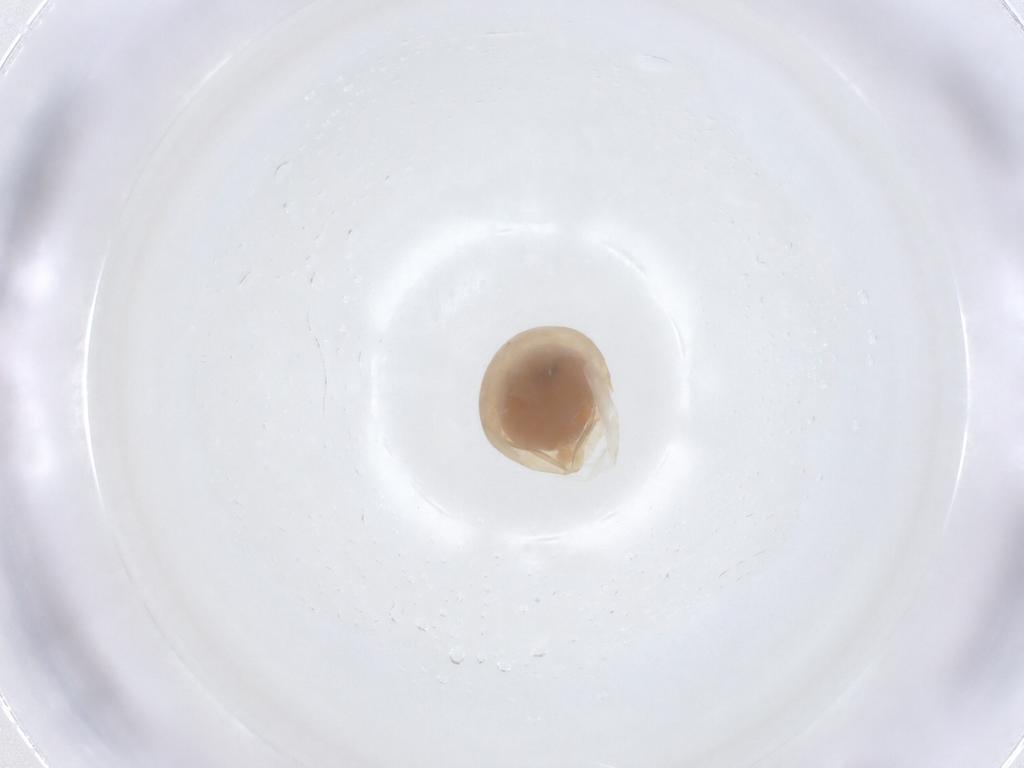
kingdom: Animalia
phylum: Arthropoda
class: Insecta
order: Hymenoptera
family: Scelionidae
